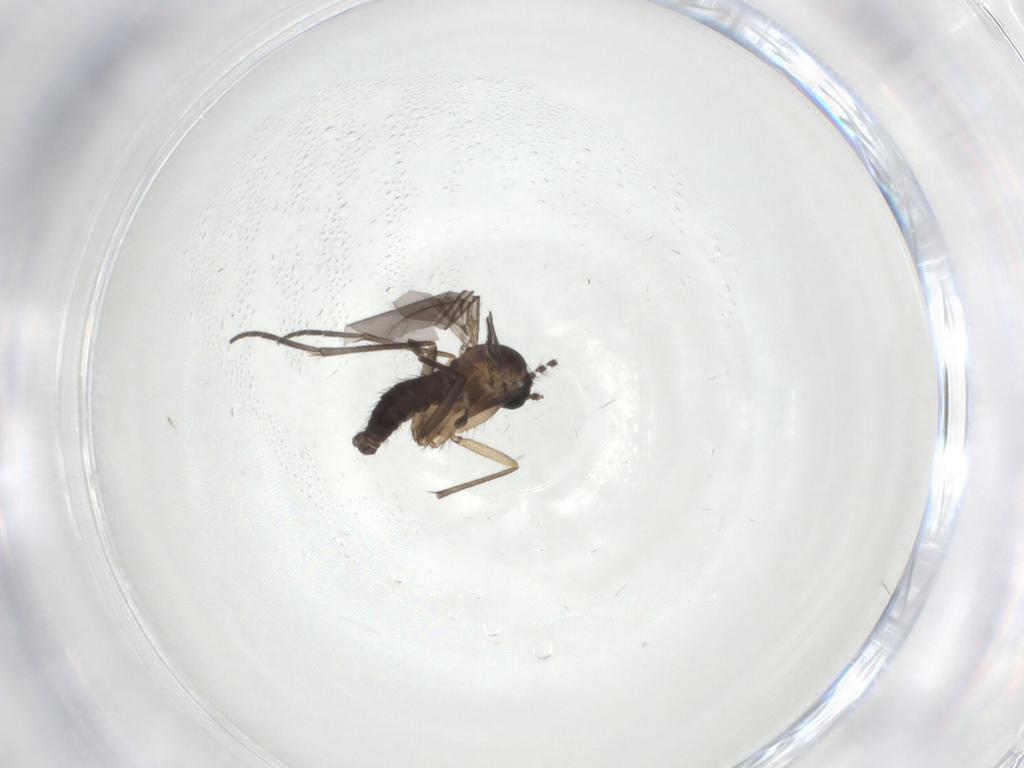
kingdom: Animalia
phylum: Arthropoda
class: Insecta
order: Diptera
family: Sciaridae
